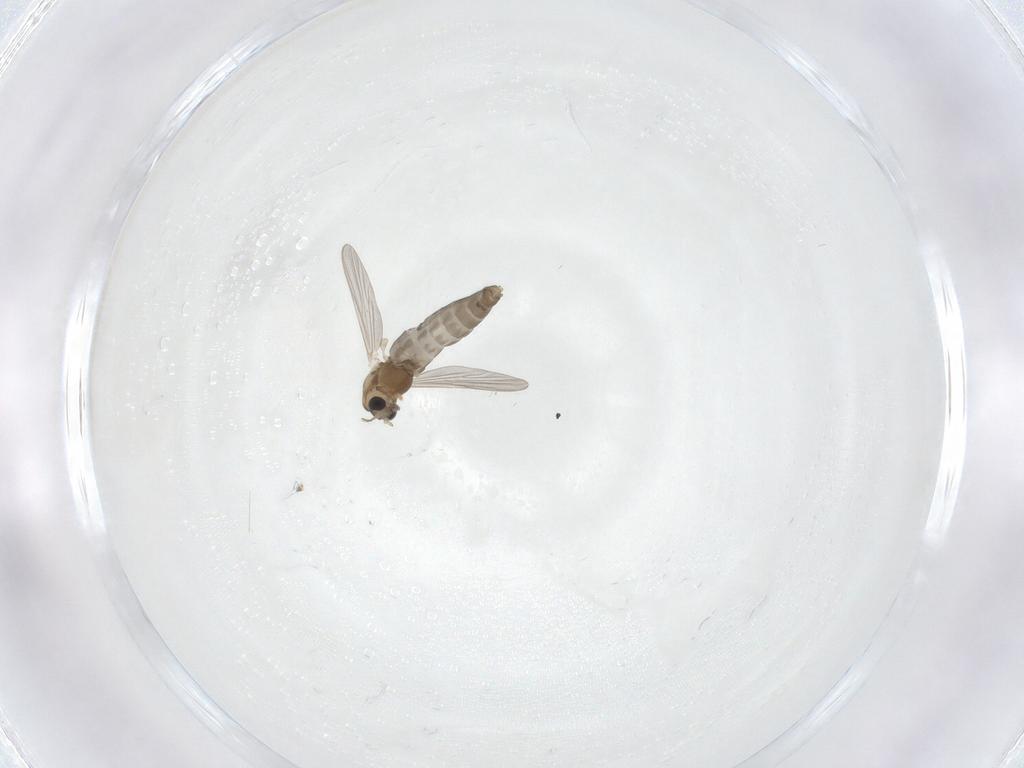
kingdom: Animalia
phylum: Arthropoda
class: Insecta
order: Diptera
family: Chironomidae
